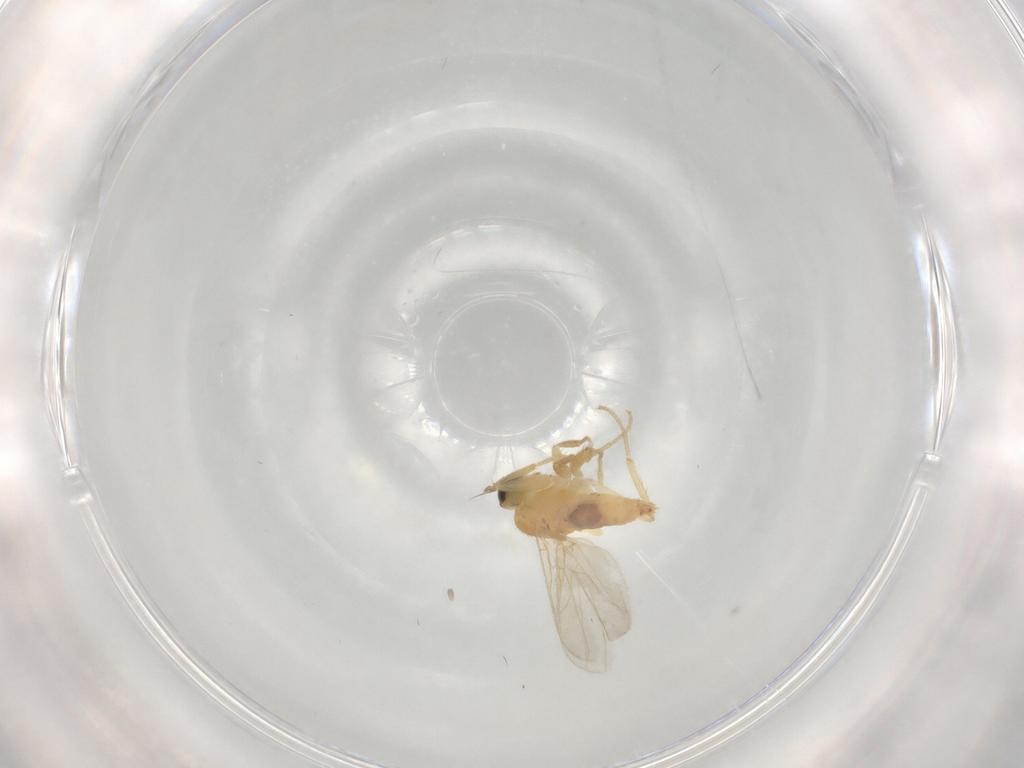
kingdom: Animalia
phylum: Arthropoda
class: Insecta
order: Diptera
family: Hybotidae
